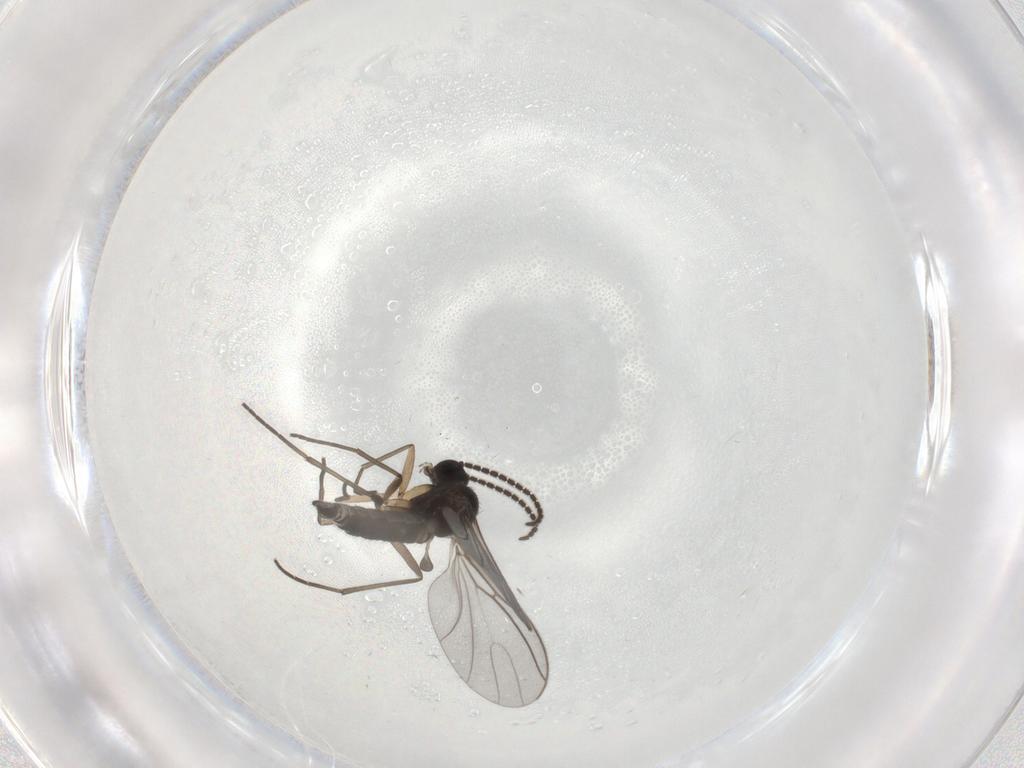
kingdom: Animalia
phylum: Arthropoda
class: Insecta
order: Diptera
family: Sciaridae
